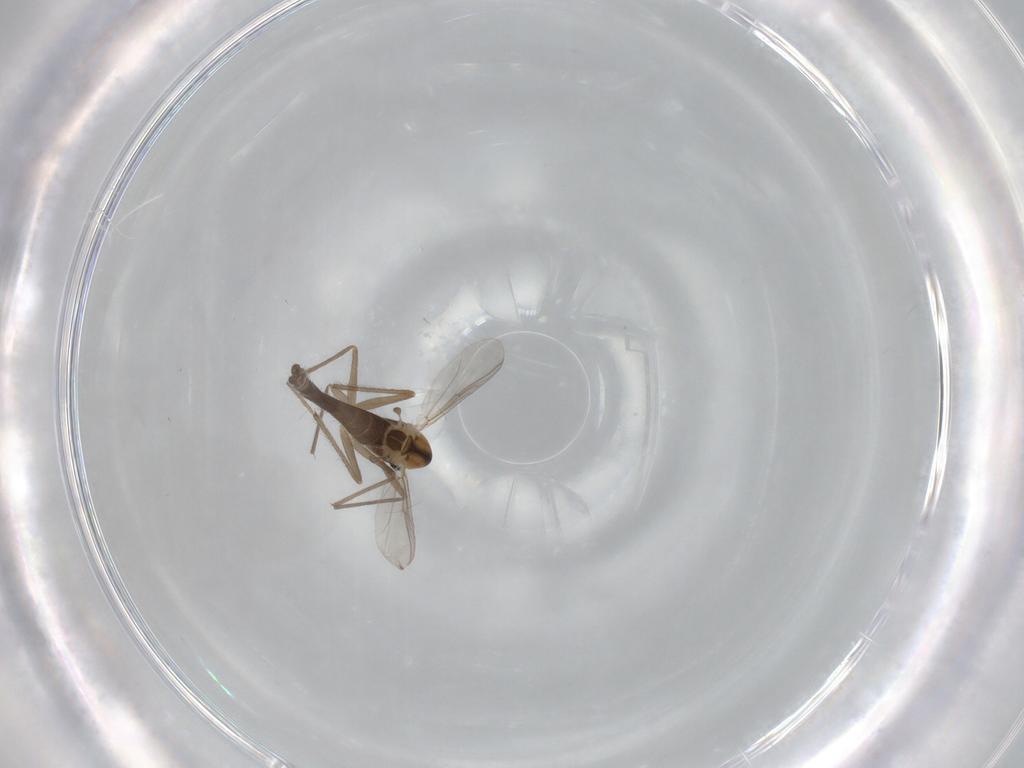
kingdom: Animalia
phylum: Arthropoda
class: Insecta
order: Diptera
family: Chironomidae
